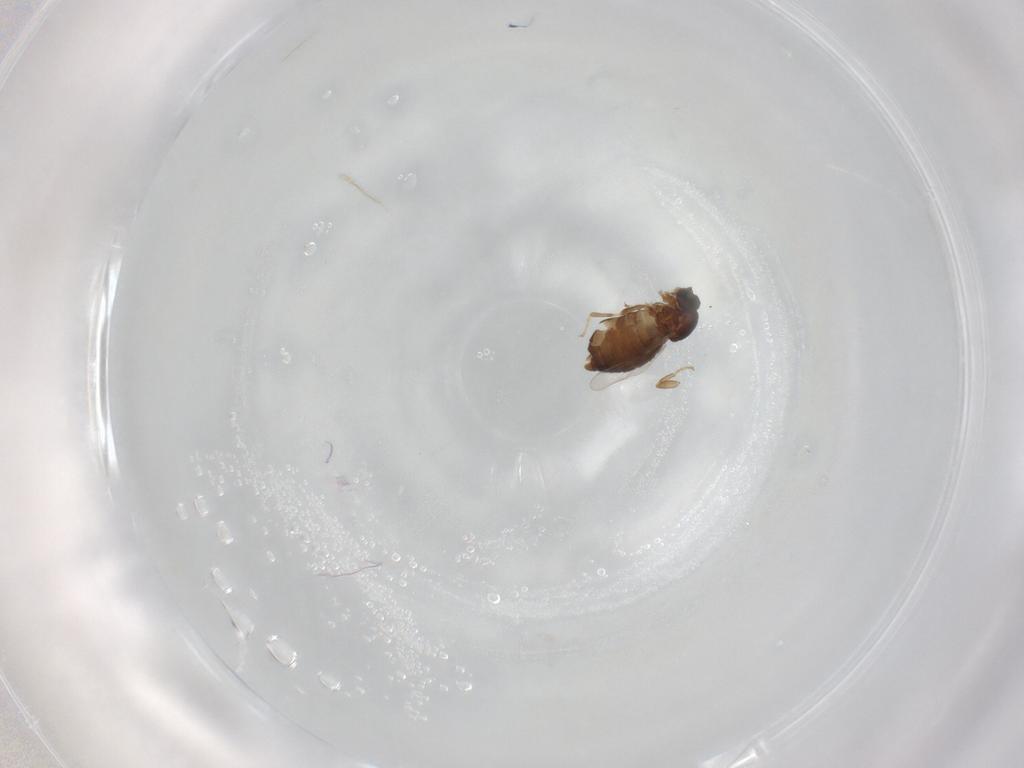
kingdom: Animalia
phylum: Arthropoda
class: Insecta
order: Diptera
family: Scatopsidae
